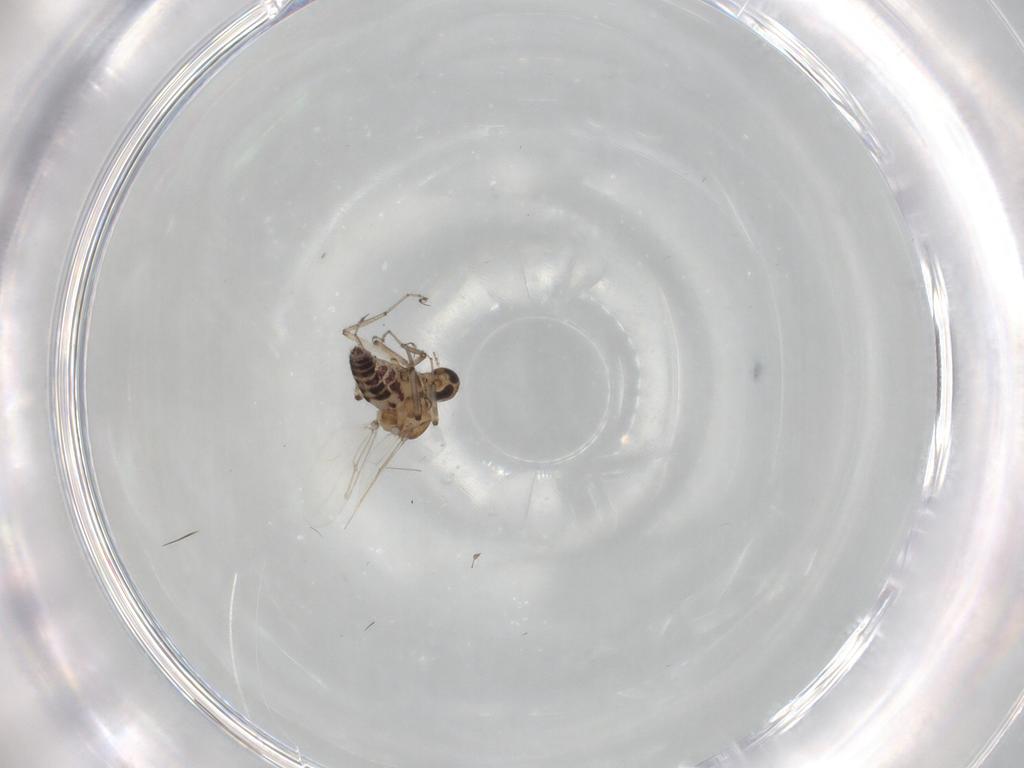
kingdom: Animalia
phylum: Arthropoda
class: Insecta
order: Diptera
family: Ceratopogonidae
